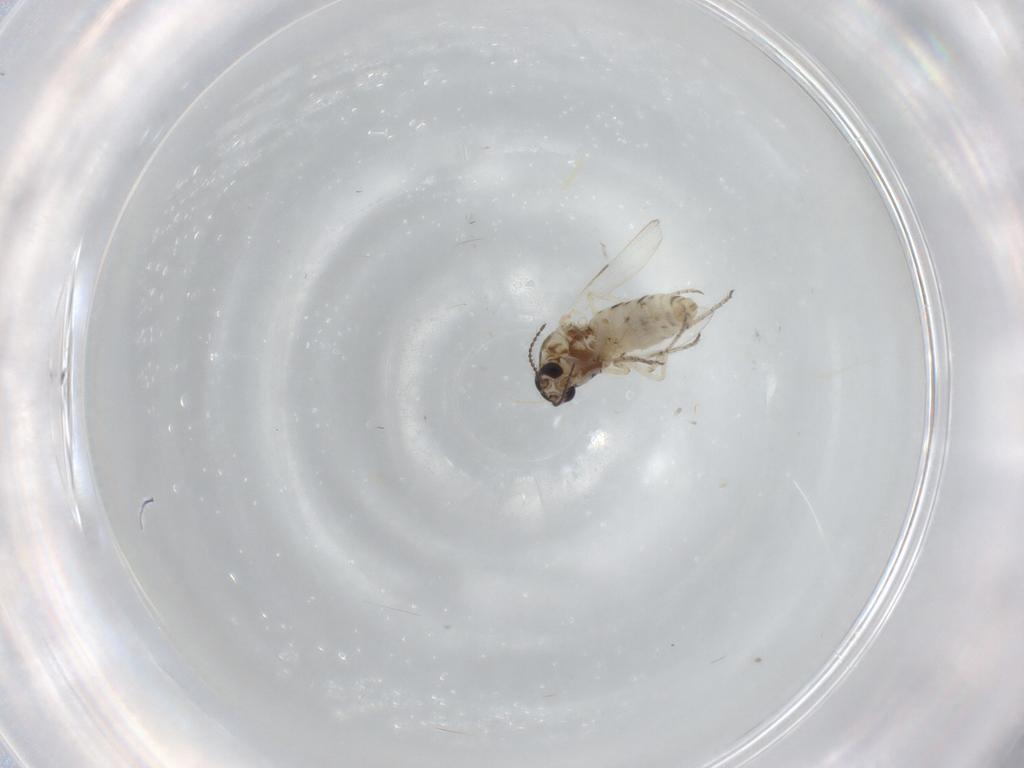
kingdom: Animalia
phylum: Arthropoda
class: Insecta
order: Diptera
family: Ceratopogonidae
